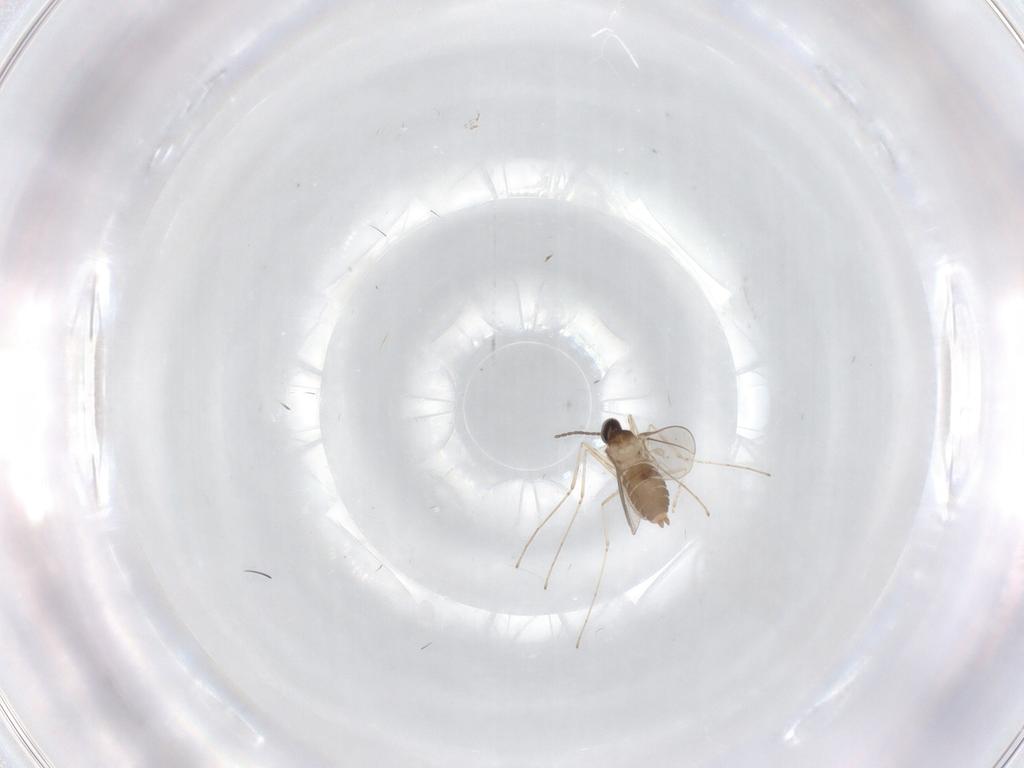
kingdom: Animalia
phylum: Arthropoda
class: Insecta
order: Diptera
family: Cecidomyiidae
